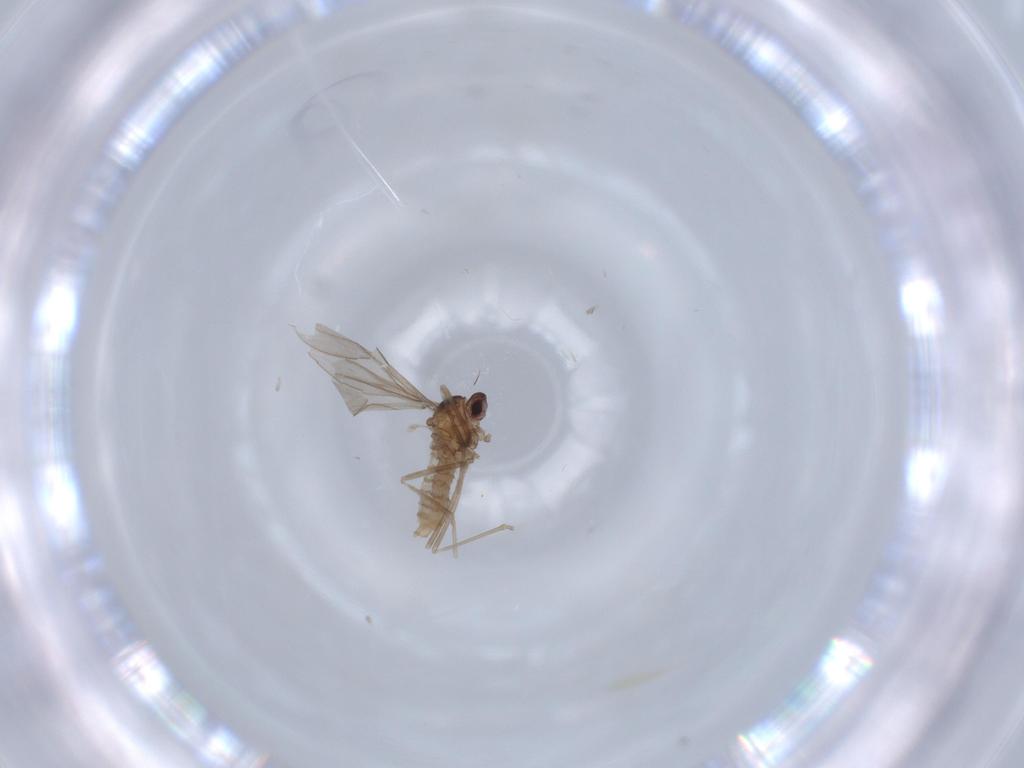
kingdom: Animalia
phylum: Arthropoda
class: Insecta
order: Diptera
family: Cecidomyiidae
